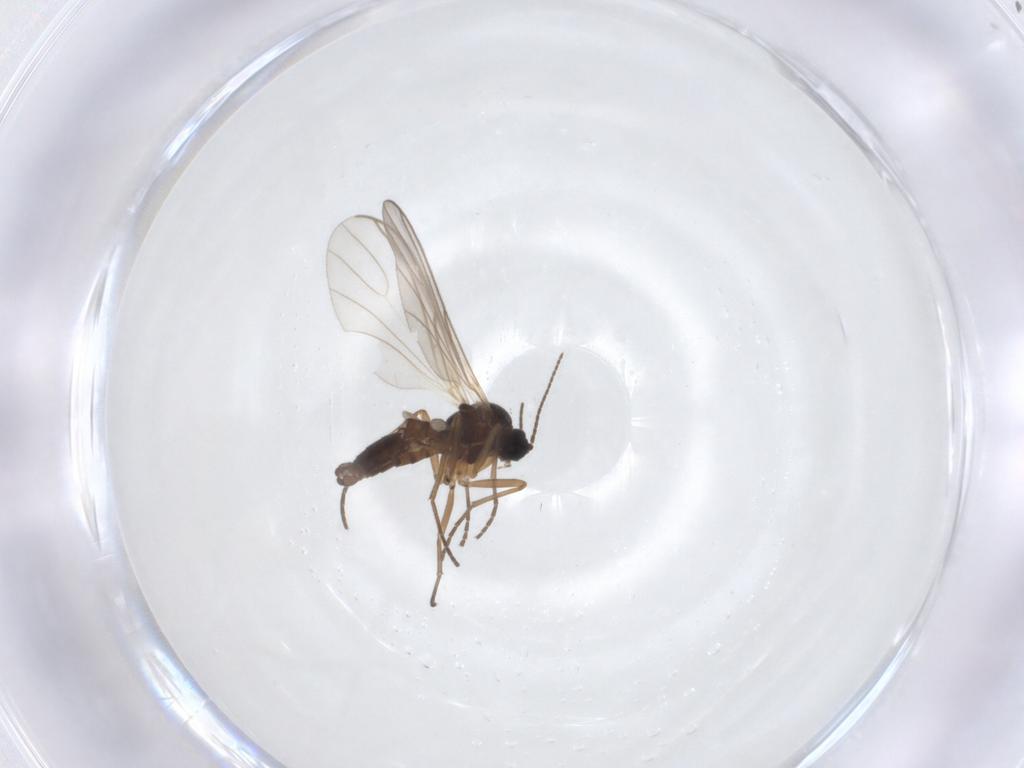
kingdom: Animalia
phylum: Arthropoda
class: Insecta
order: Diptera
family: Sciaridae
